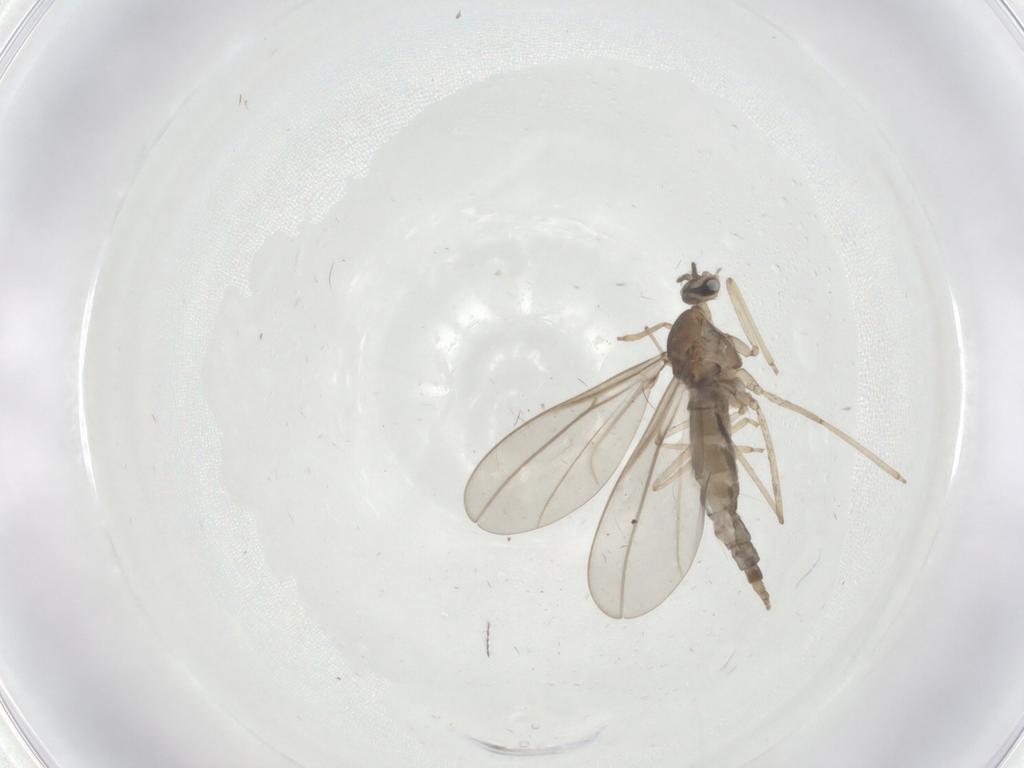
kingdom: Animalia
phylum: Arthropoda
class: Insecta
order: Diptera
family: Cecidomyiidae
